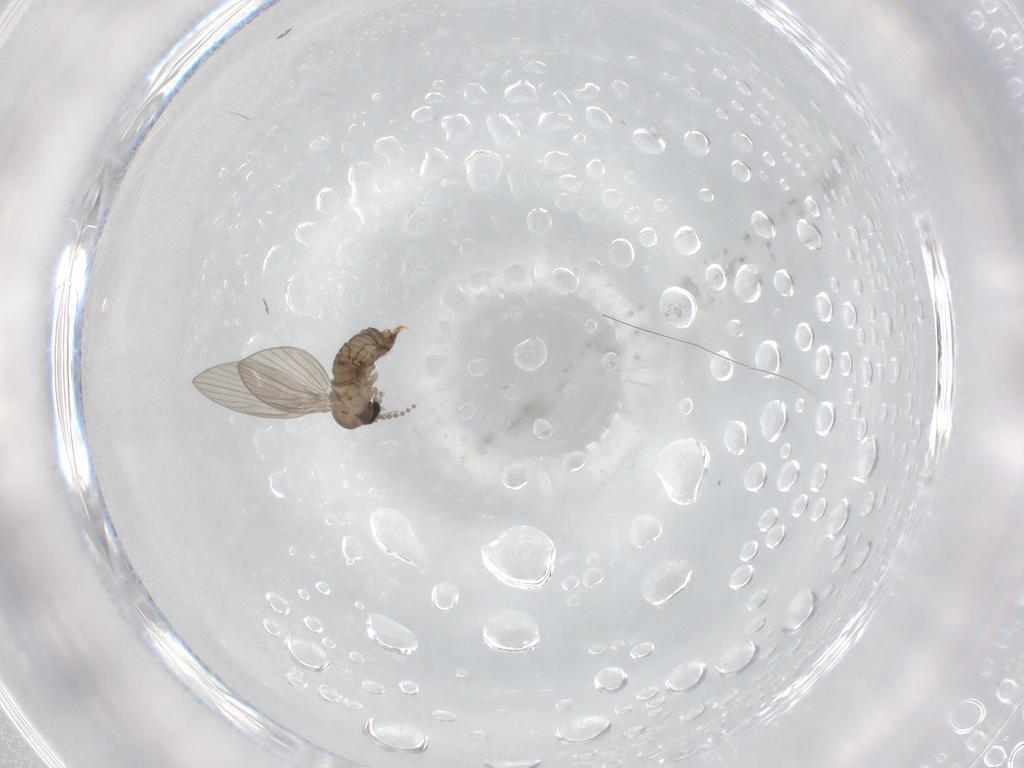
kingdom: Animalia
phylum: Arthropoda
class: Insecta
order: Diptera
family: Psychodidae
